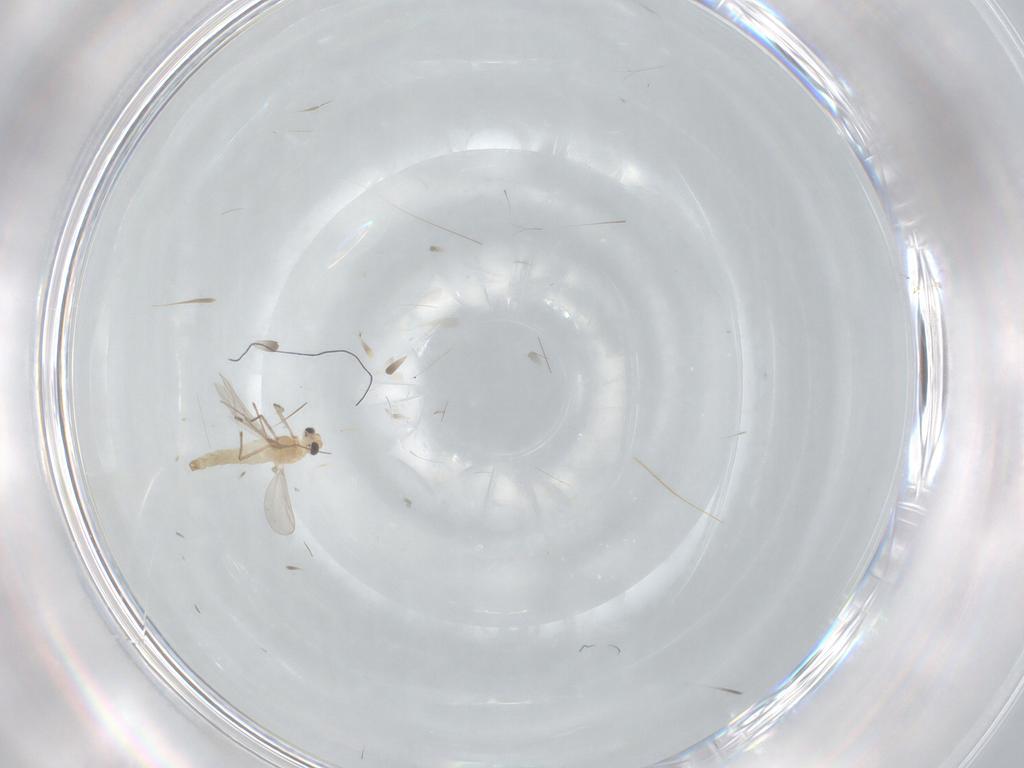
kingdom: Animalia
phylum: Arthropoda
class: Insecta
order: Diptera
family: Chironomidae
